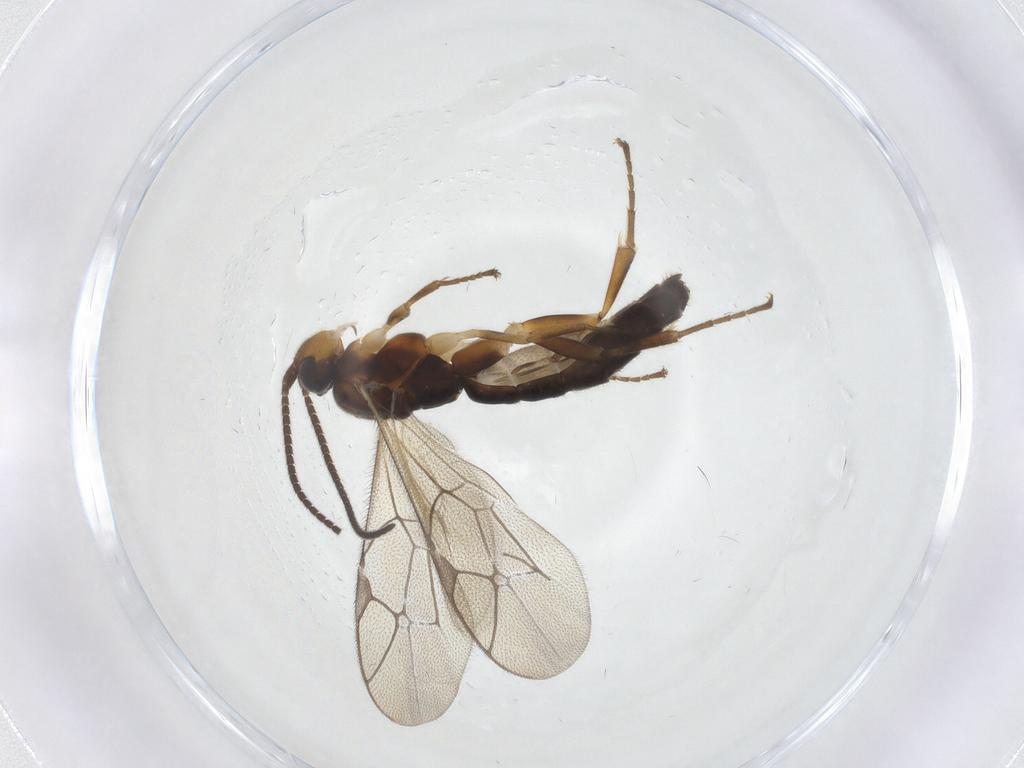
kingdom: Animalia
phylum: Arthropoda
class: Insecta
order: Hymenoptera
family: Ichneumonidae
